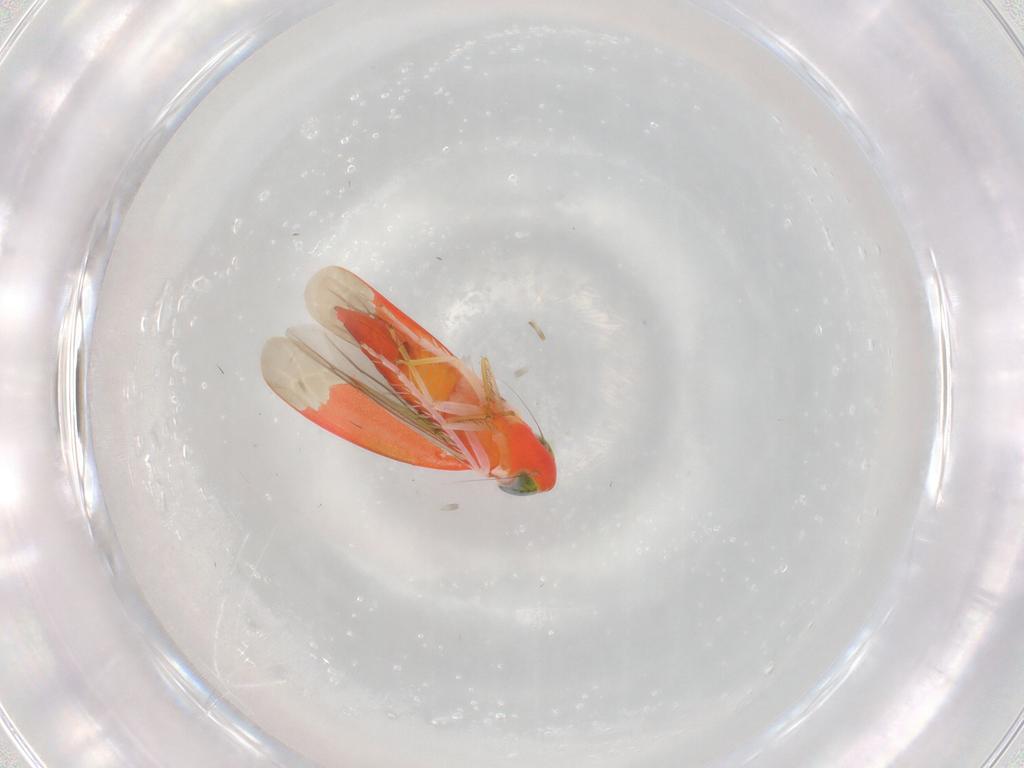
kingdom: Animalia
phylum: Arthropoda
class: Insecta
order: Hemiptera
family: Cicadellidae
